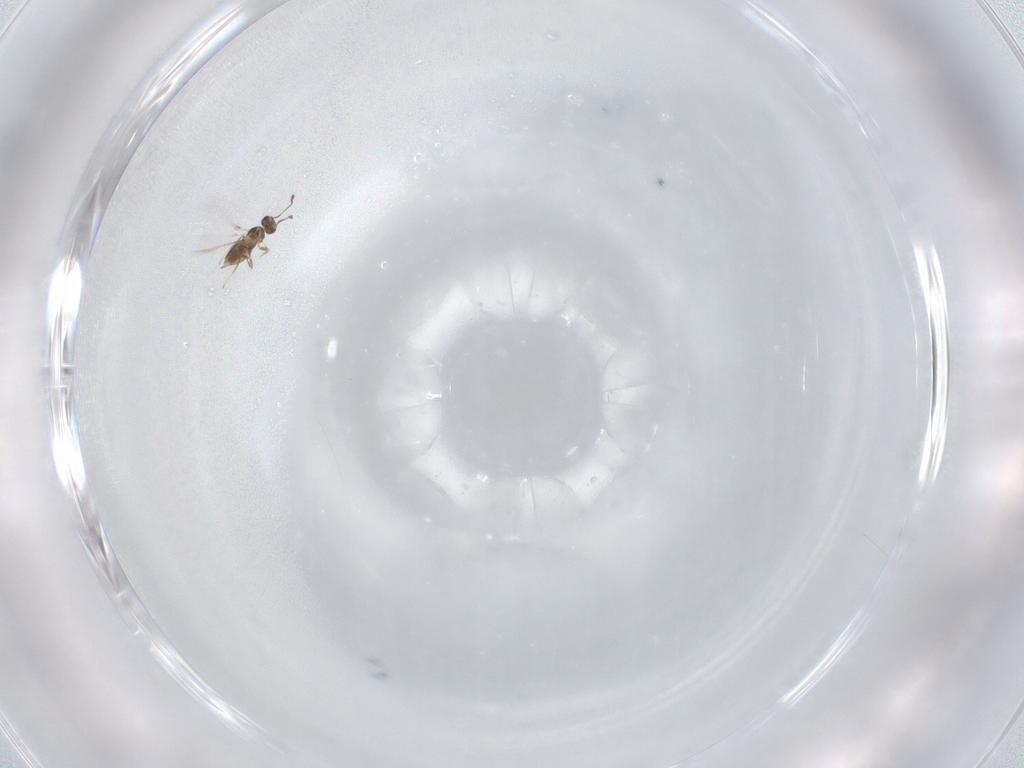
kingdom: Animalia
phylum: Arthropoda
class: Insecta
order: Hymenoptera
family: Mymaridae
